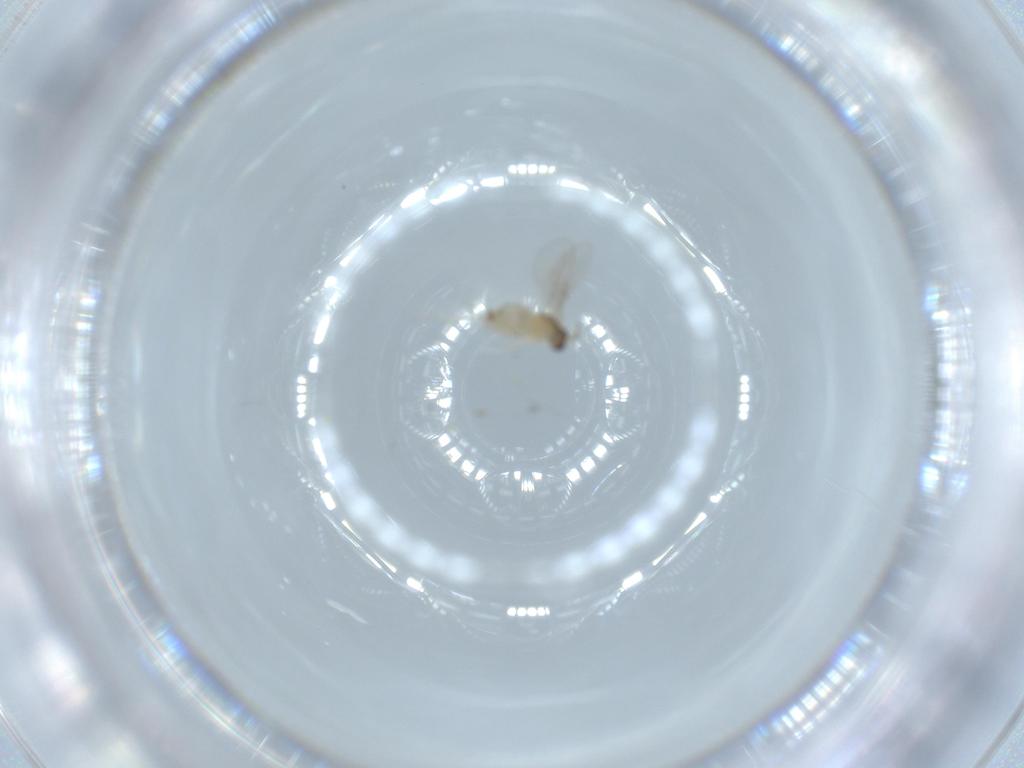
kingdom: Animalia
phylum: Arthropoda
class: Insecta
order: Diptera
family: Cecidomyiidae
